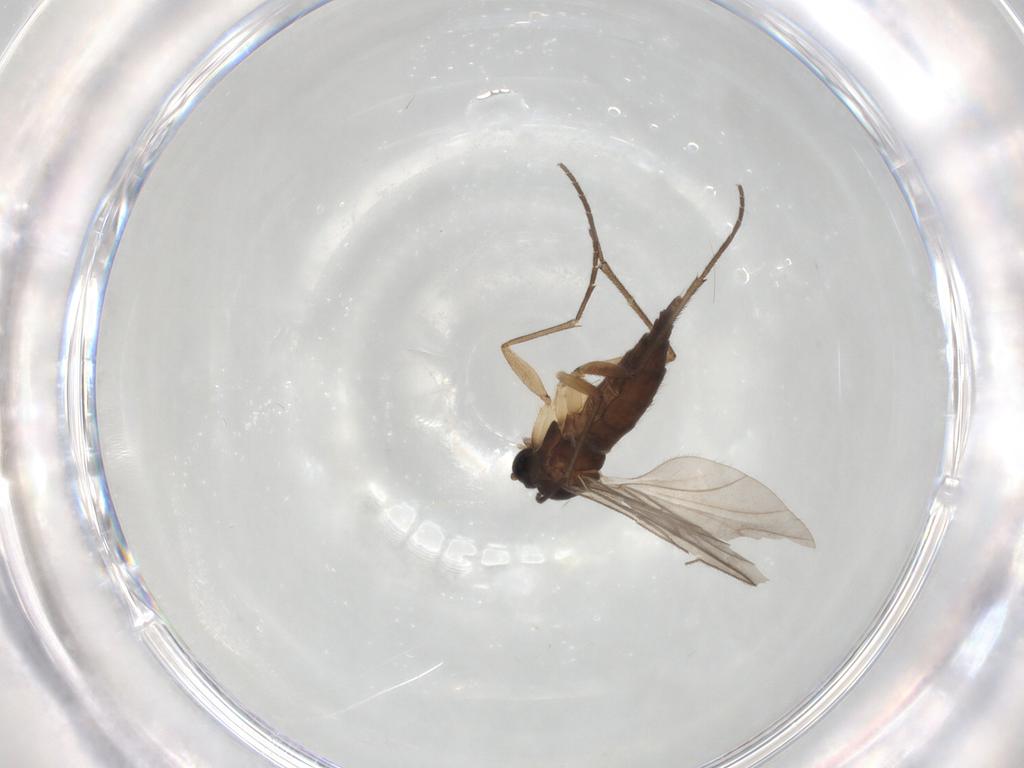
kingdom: Animalia
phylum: Arthropoda
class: Insecta
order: Diptera
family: Sciaridae
